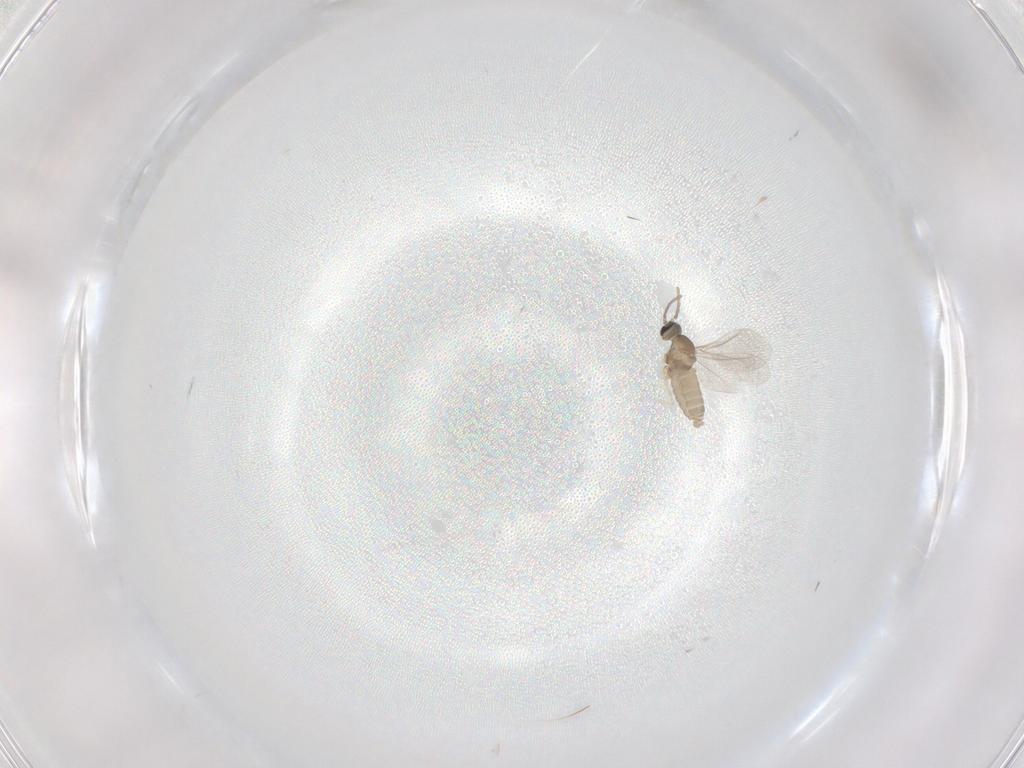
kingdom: Animalia
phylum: Arthropoda
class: Insecta
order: Diptera
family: Cecidomyiidae
